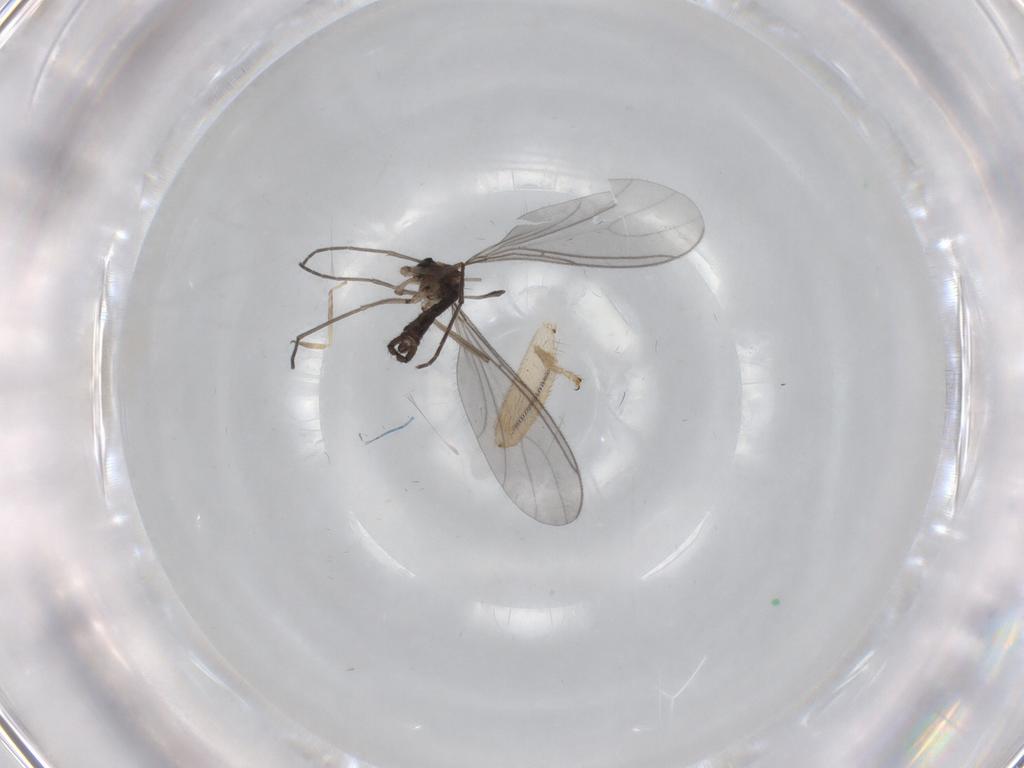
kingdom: Animalia
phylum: Arthropoda
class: Insecta
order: Diptera
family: Sciaridae
